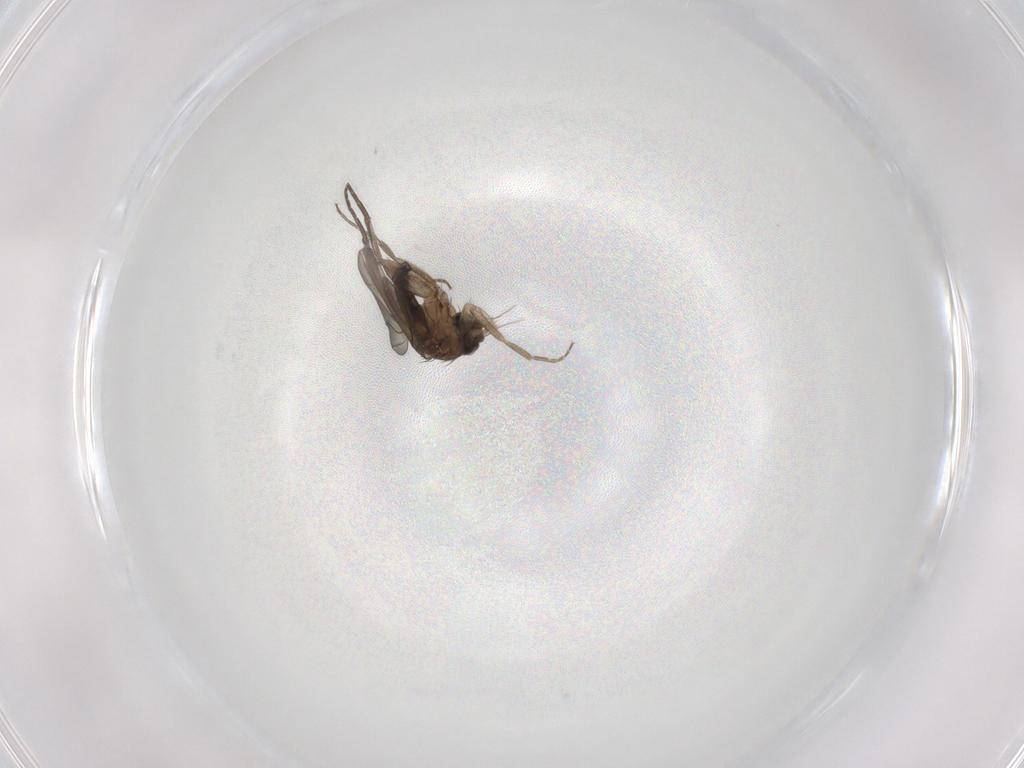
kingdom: Animalia
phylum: Arthropoda
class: Insecta
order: Diptera
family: Phoridae
